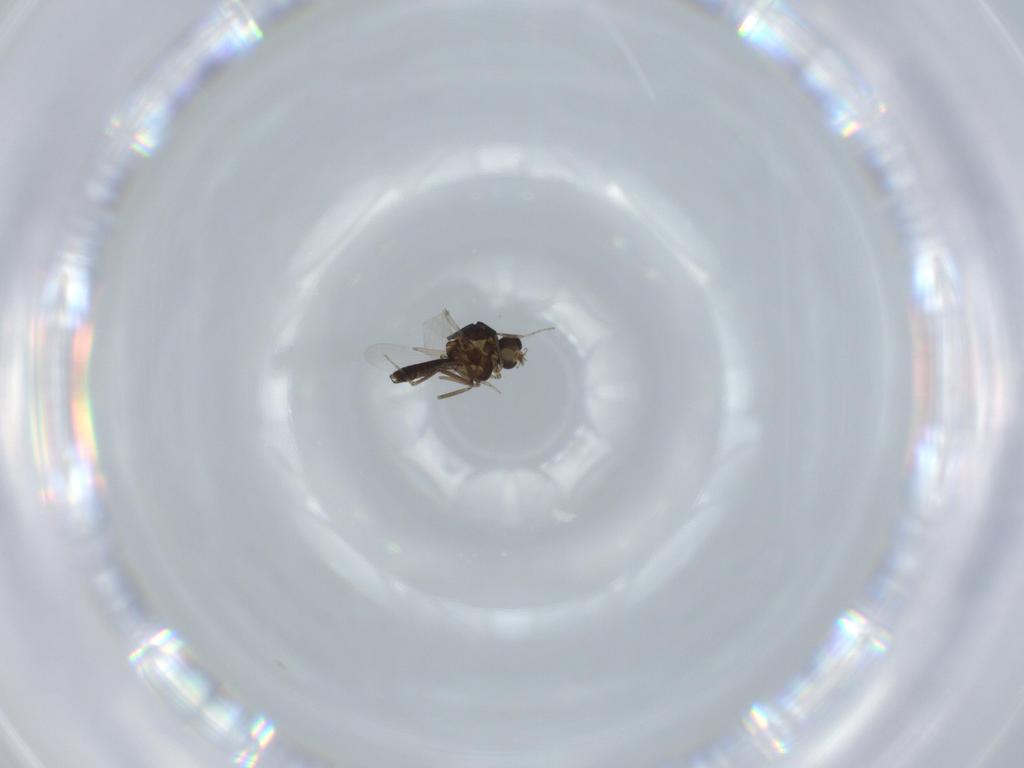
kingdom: Animalia
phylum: Arthropoda
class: Insecta
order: Diptera
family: Ceratopogonidae
